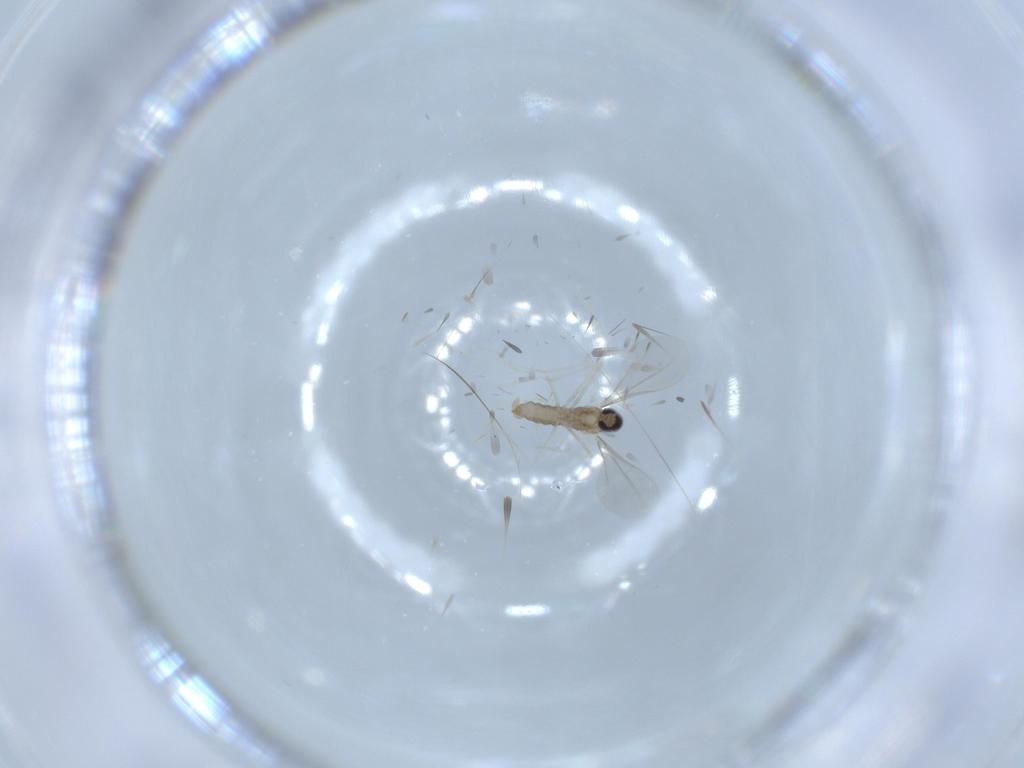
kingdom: Animalia
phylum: Arthropoda
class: Insecta
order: Diptera
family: Cecidomyiidae
